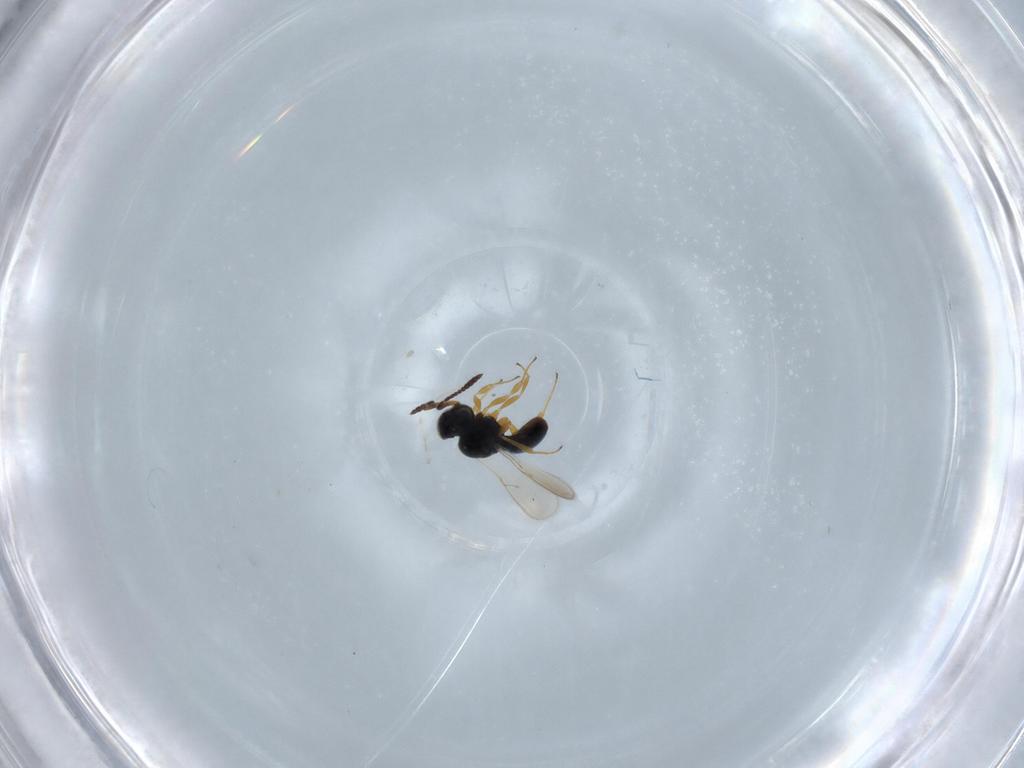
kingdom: Animalia
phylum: Arthropoda
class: Insecta
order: Hymenoptera
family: Scelionidae
